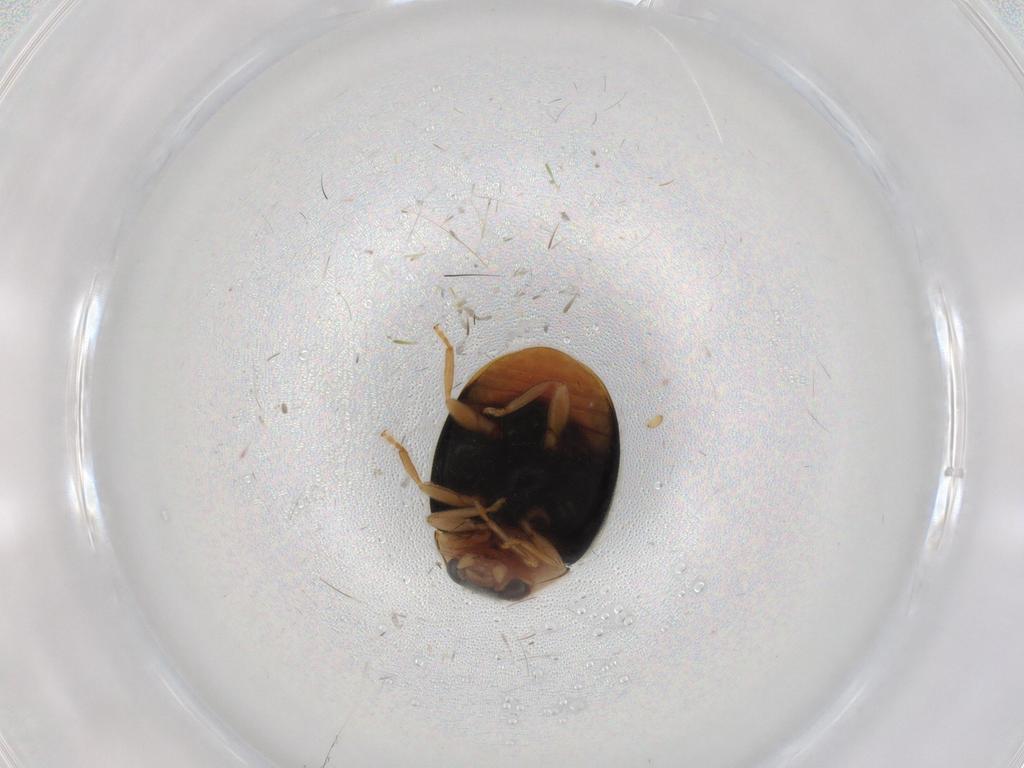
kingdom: Animalia
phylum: Arthropoda
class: Insecta
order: Coleoptera
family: Coccinellidae
